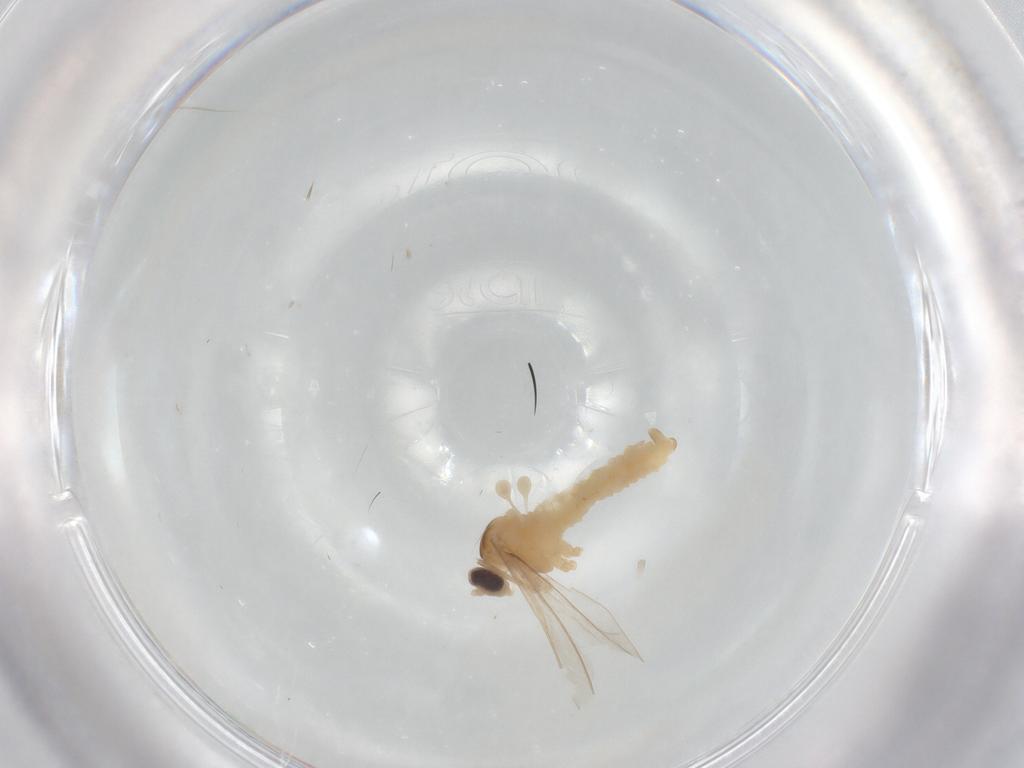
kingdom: Animalia
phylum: Arthropoda
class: Insecta
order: Diptera
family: Cecidomyiidae
